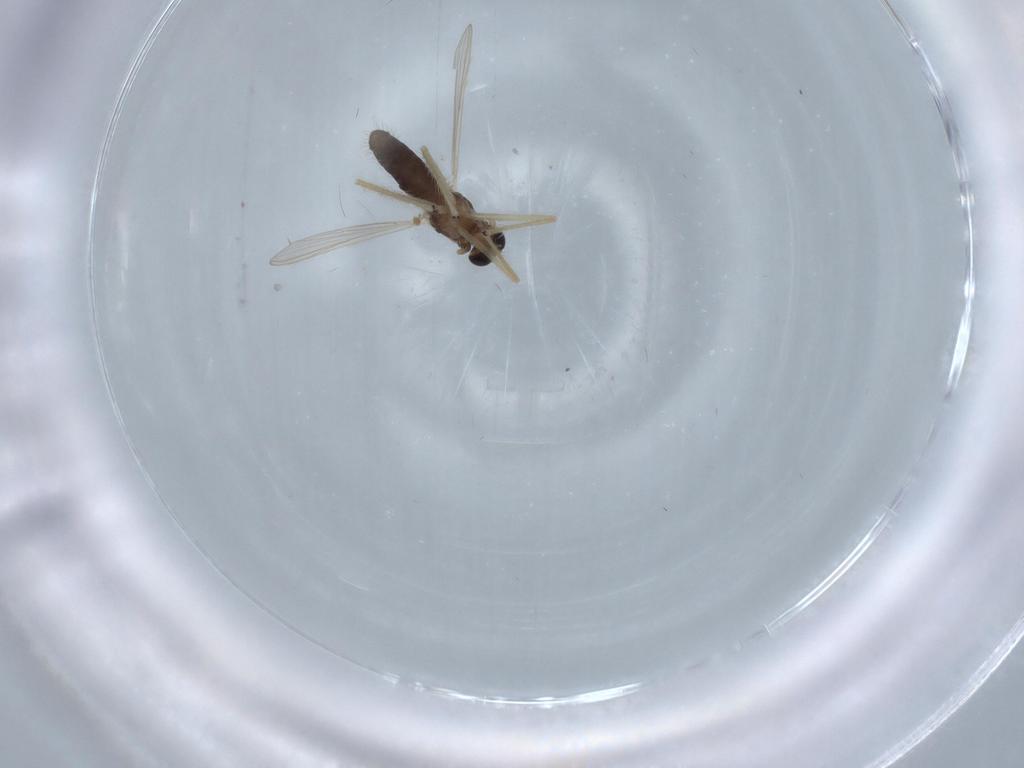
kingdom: Animalia
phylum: Arthropoda
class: Insecta
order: Diptera
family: Chironomidae
